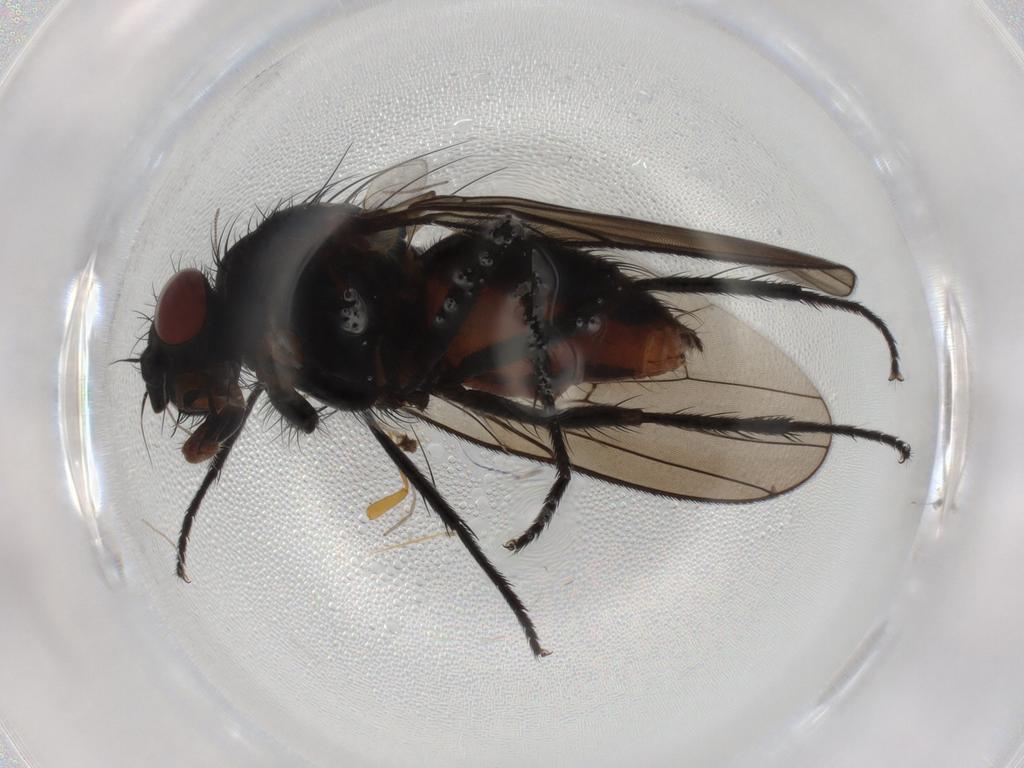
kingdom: Animalia
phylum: Arthropoda
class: Insecta
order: Diptera
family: Anthomyiidae
